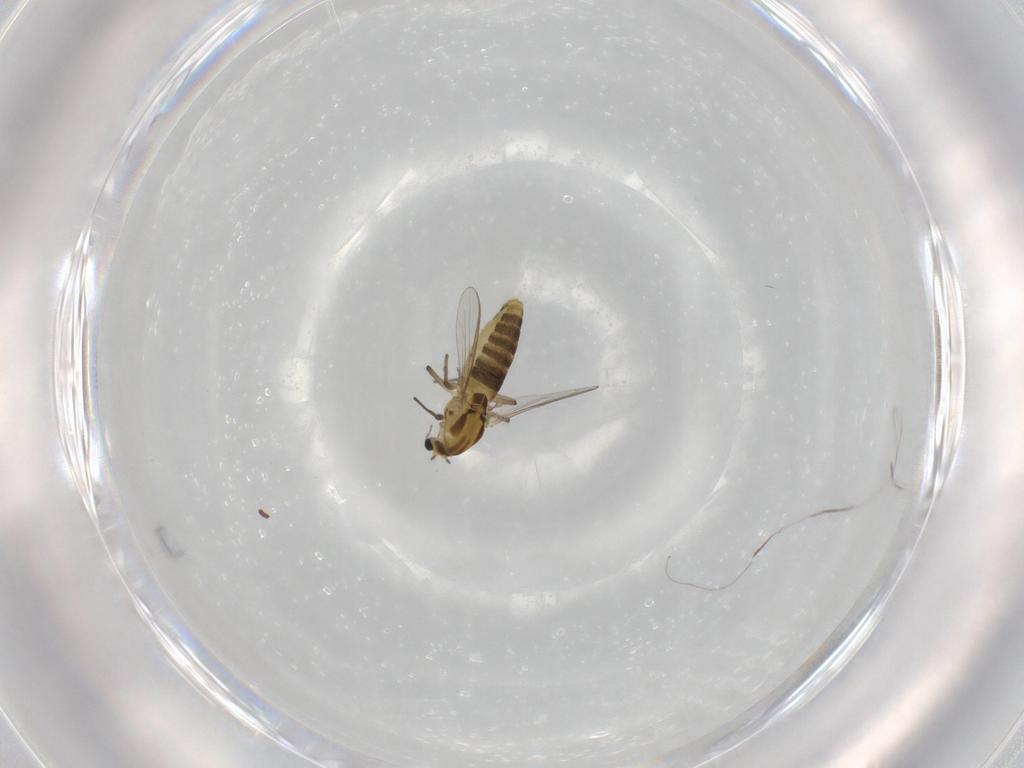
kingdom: Animalia
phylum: Arthropoda
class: Insecta
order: Diptera
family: Chironomidae
